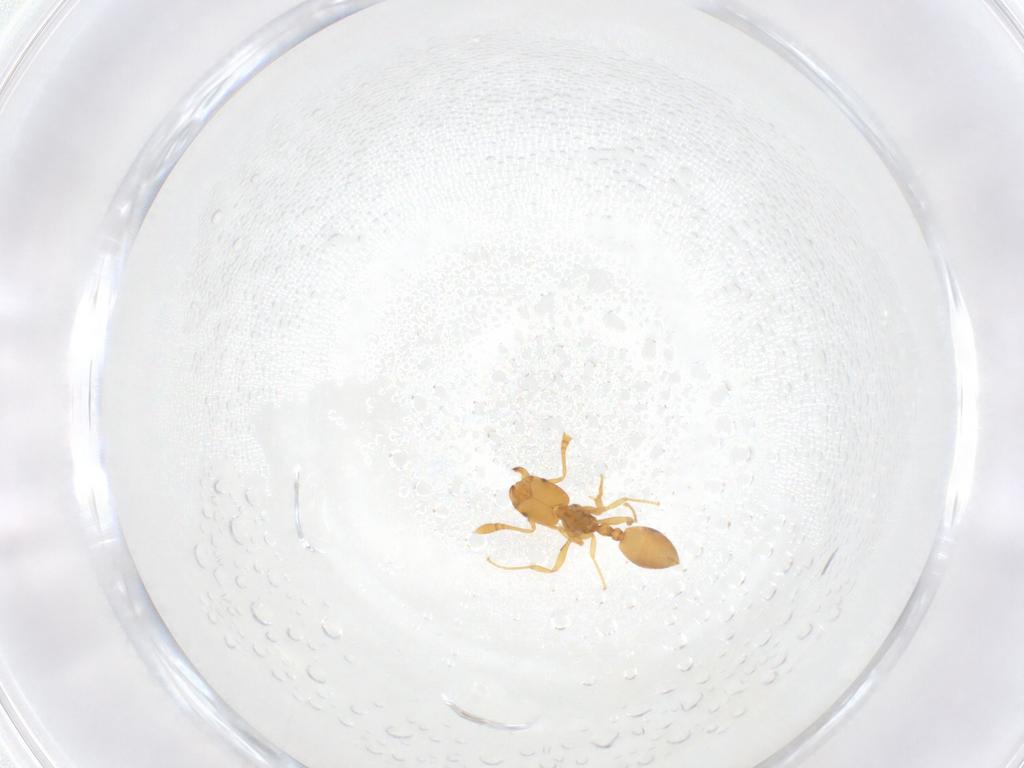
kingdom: Animalia
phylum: Arthropoda
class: Insecta
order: Hymenoptera
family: Formicidae
